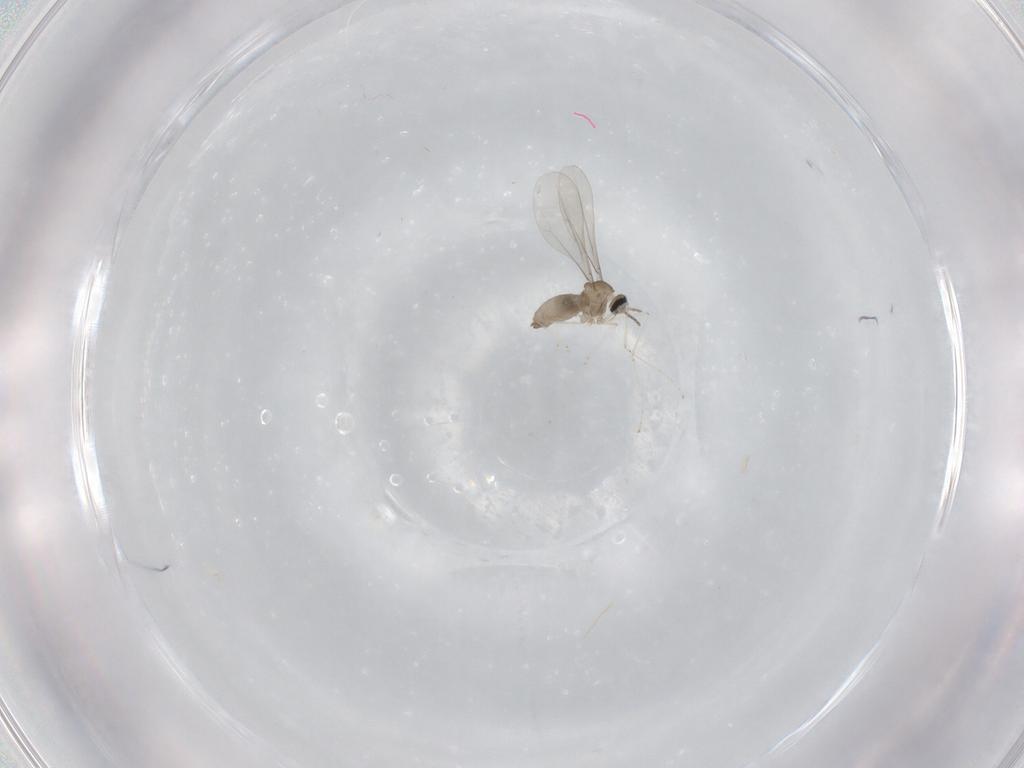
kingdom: Animalia
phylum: Arthropoda
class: Insecta
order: Diptera
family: Cecidomyiidae
